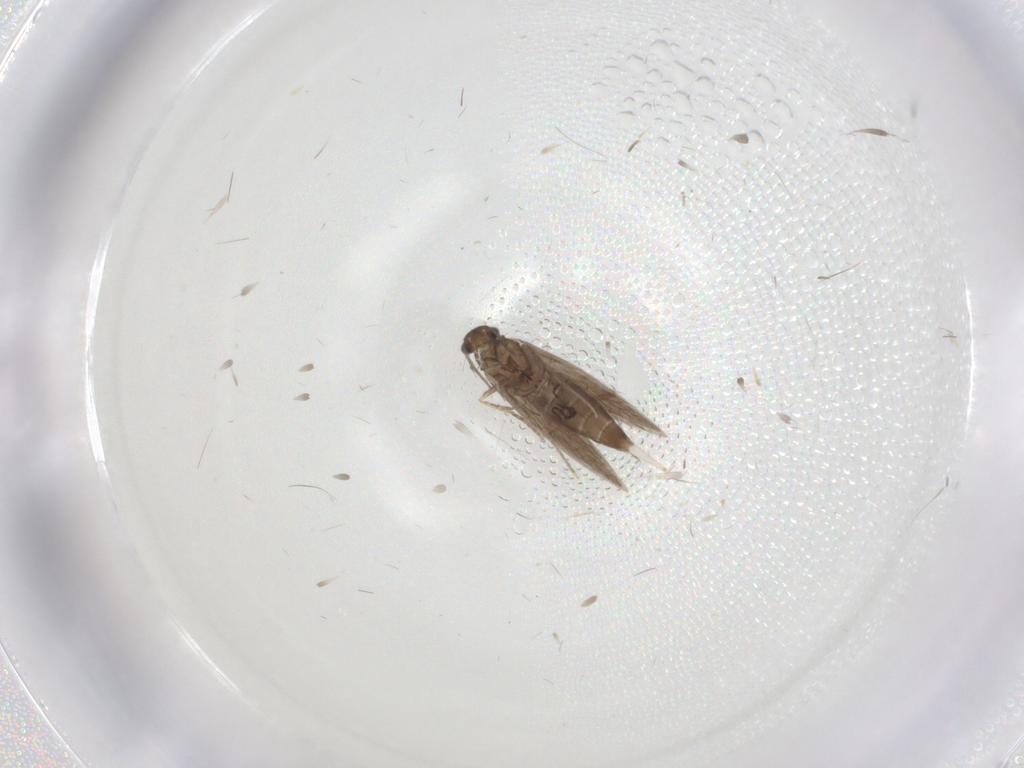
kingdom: Animalia
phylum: Arthropoda
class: Insecta
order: Trichoptera
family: Hydroptilidae
